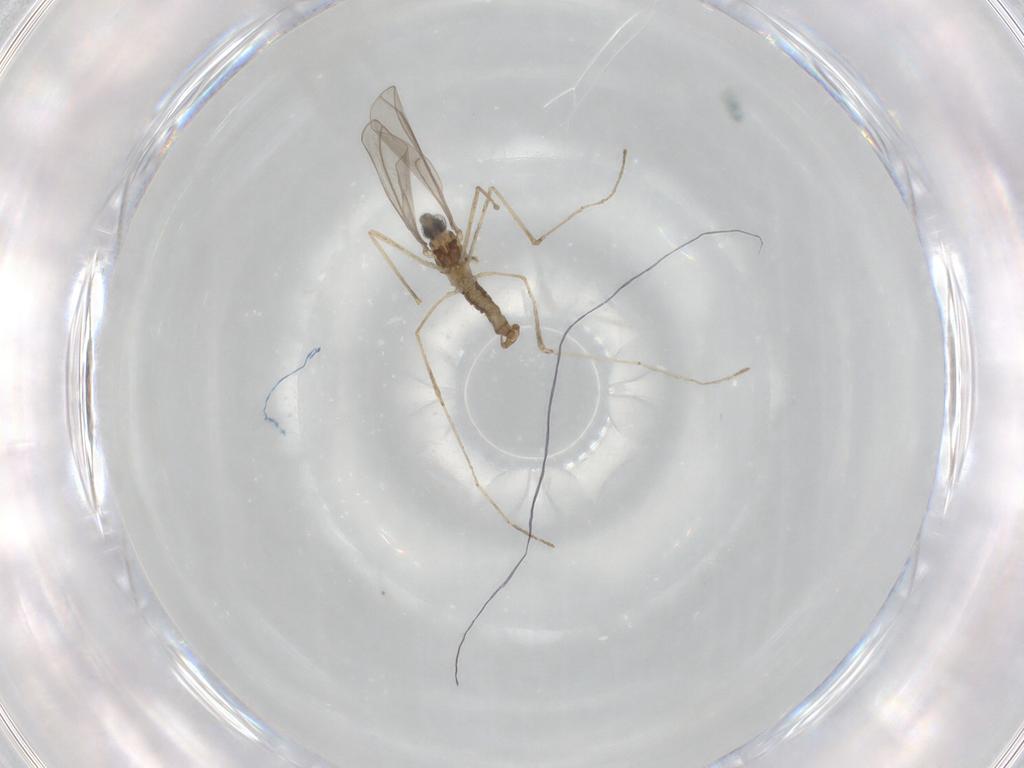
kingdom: Animalia
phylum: Arthropoda
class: Insecta
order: Diptera
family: Cecidomyiidae
